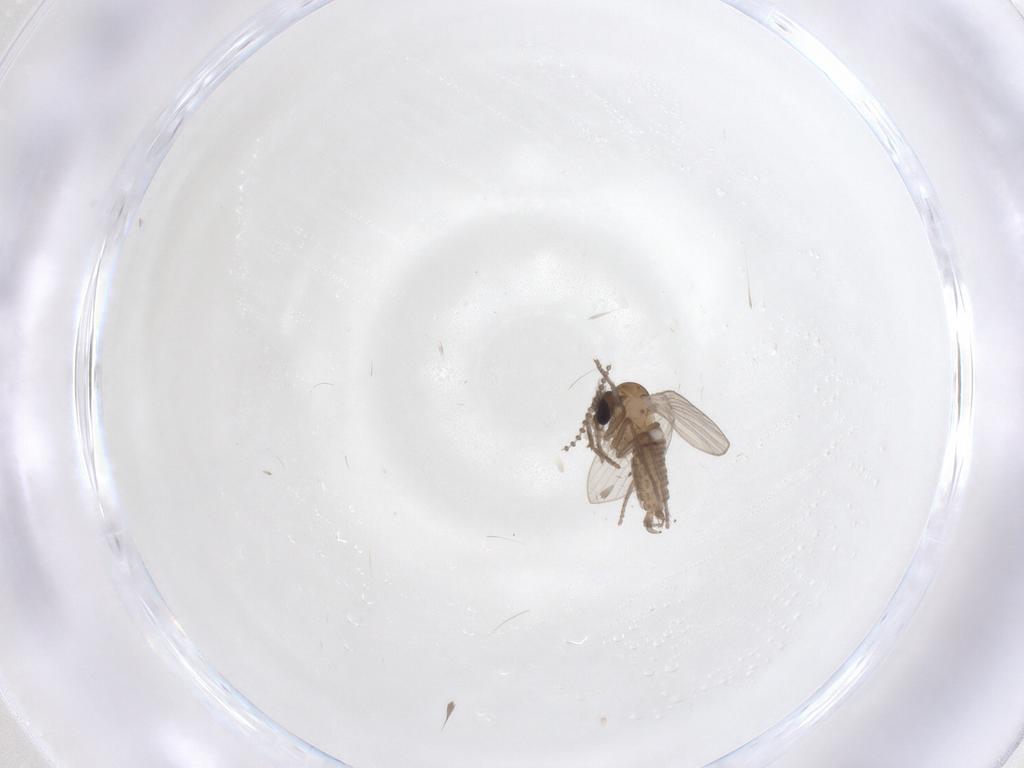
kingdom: Animalia
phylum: Arthropoda
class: Insecta
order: Diptera
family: Psychodidae
